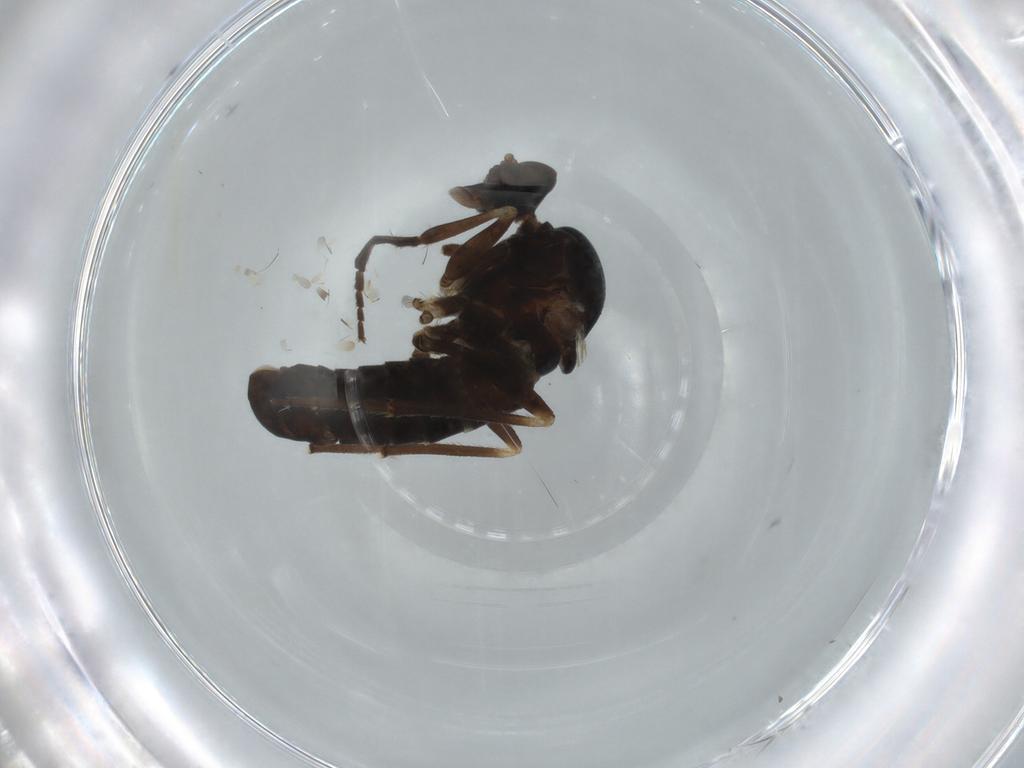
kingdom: Animalia
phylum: Arthropoda
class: Insecta
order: Diptera
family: Empididae
